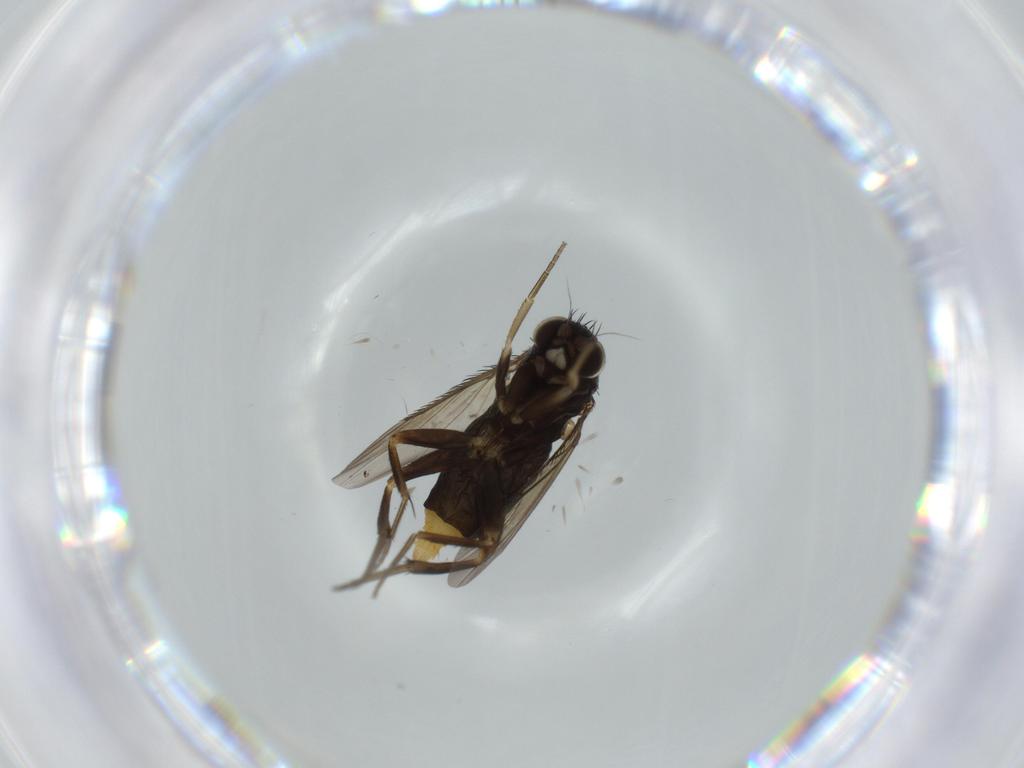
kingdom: Animalia
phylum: Arthropoda
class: Insecta
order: Diptera
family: Phoridae
